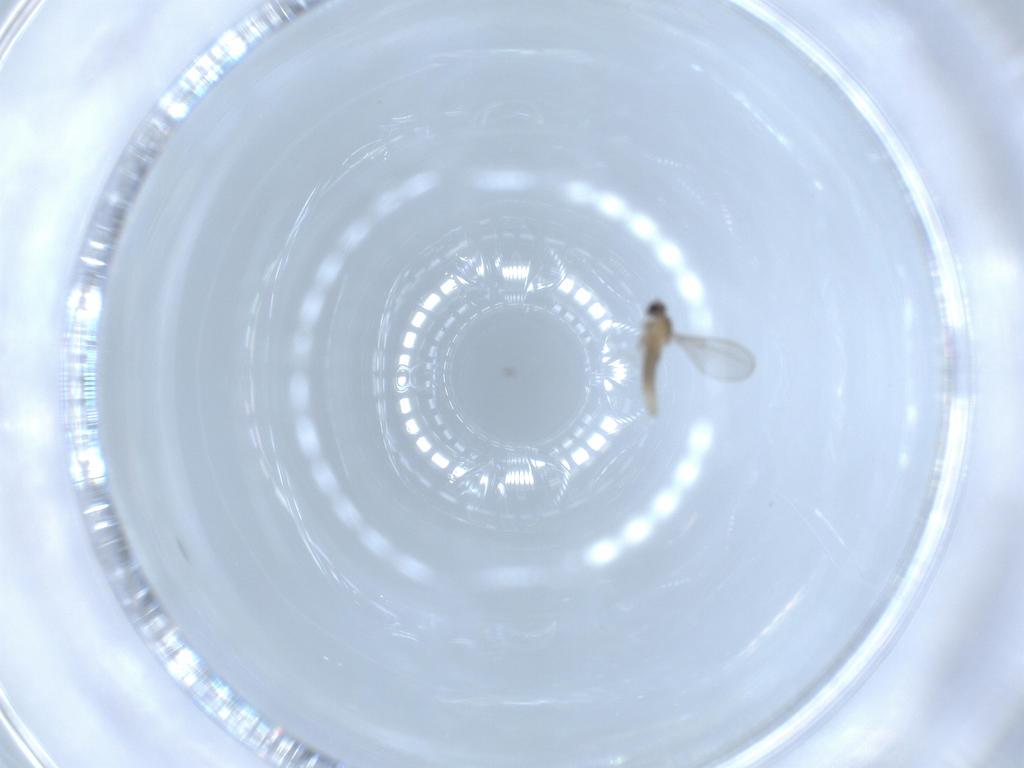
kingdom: Animalia
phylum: Arthropoda
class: Insecta
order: Diptera
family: Cecidomyiidae
